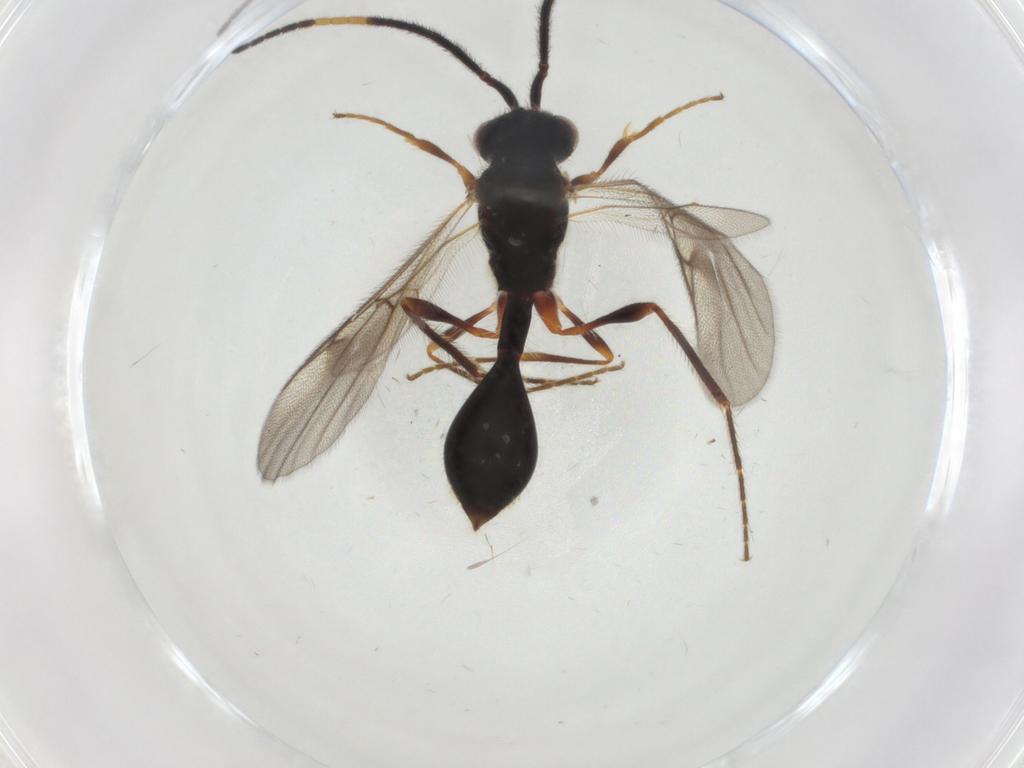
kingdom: Animalia
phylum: Arthropoda
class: Insecta
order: Hymenoptera
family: Diapriidae
